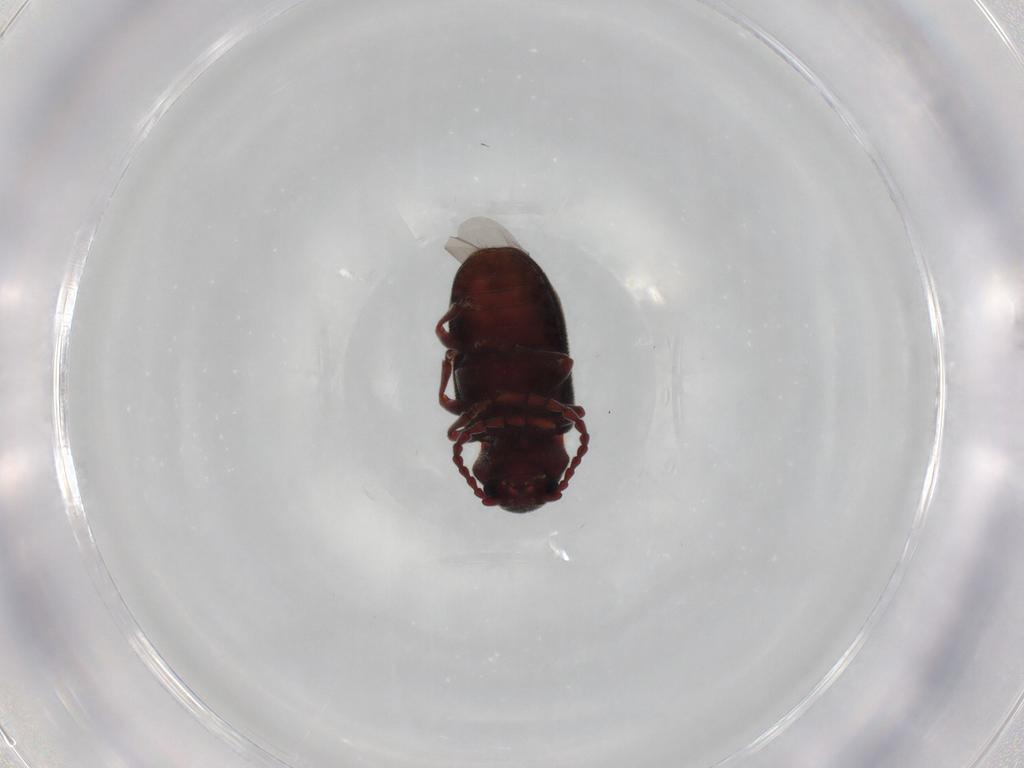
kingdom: Animalia
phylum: Arthropoda
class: Insecta
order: Coleoptera
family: Ptinidae
